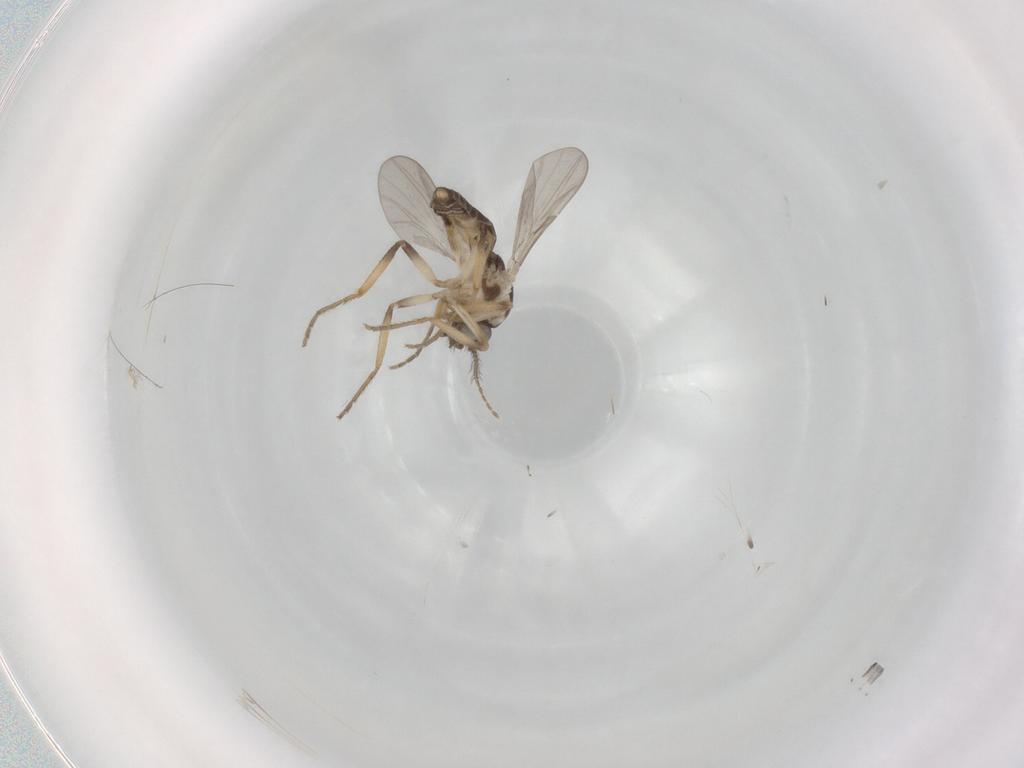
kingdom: Animalia
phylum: Arthropoda
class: Insecta
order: Diptera
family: Ceratopogonidae
